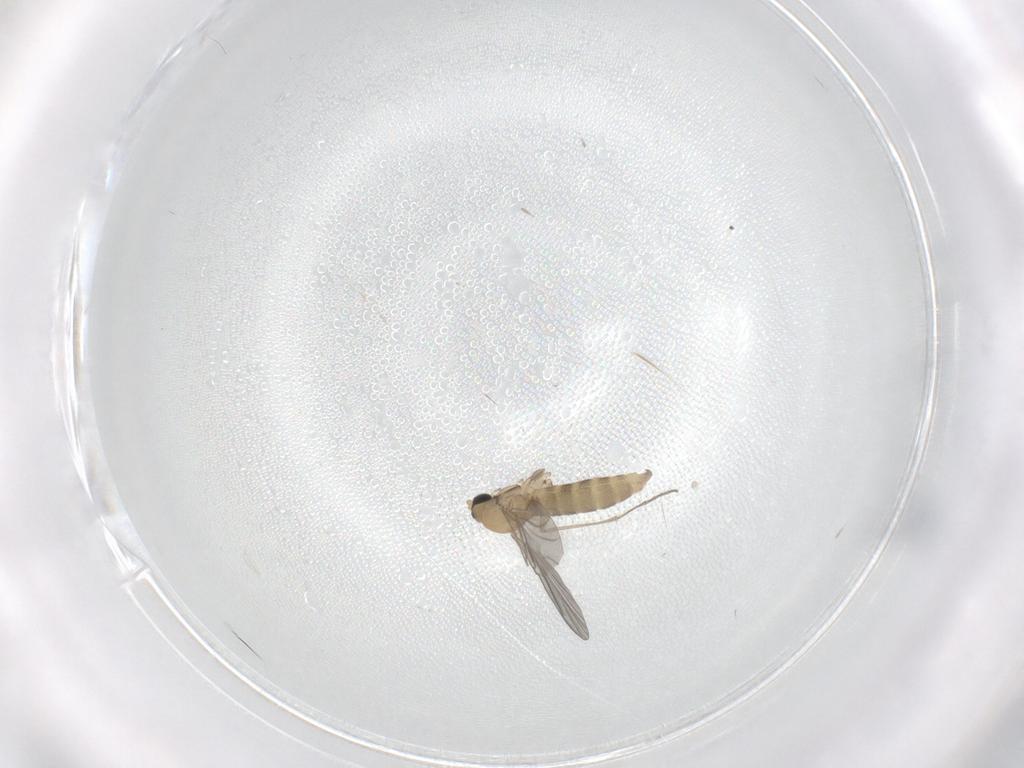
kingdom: Animalia
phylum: Arthropoda
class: Insecta
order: Diptera
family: Sciaridae
